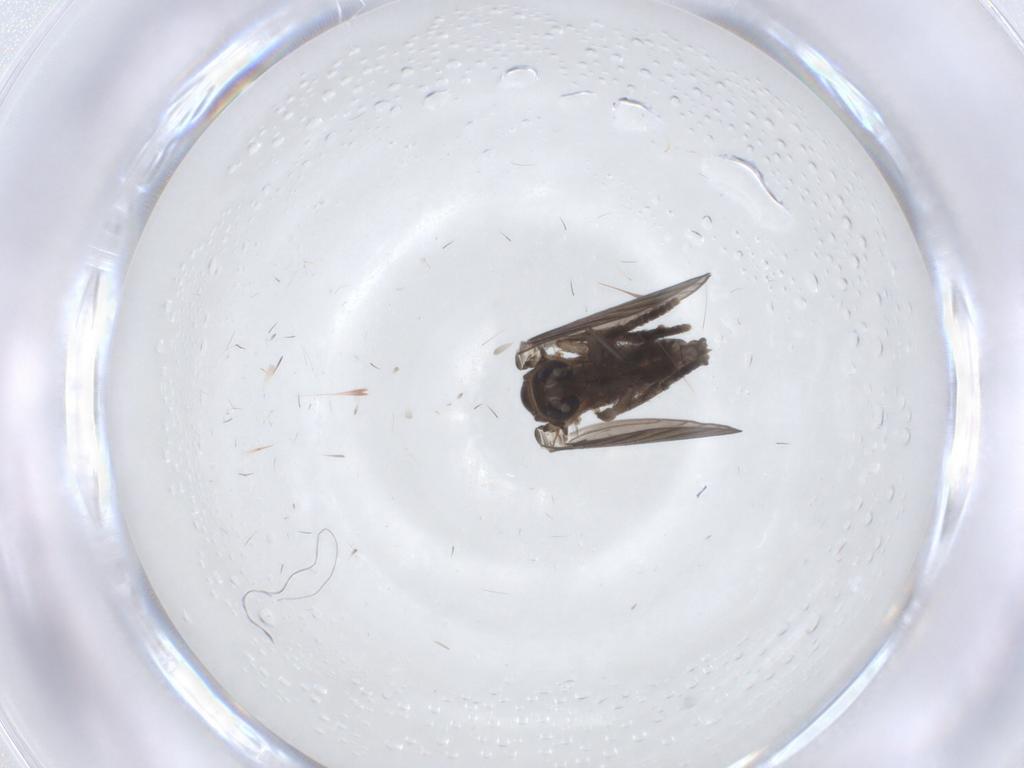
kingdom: Animalia
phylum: Arthropoda
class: Insecta
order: Diptera
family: Psychodidae
